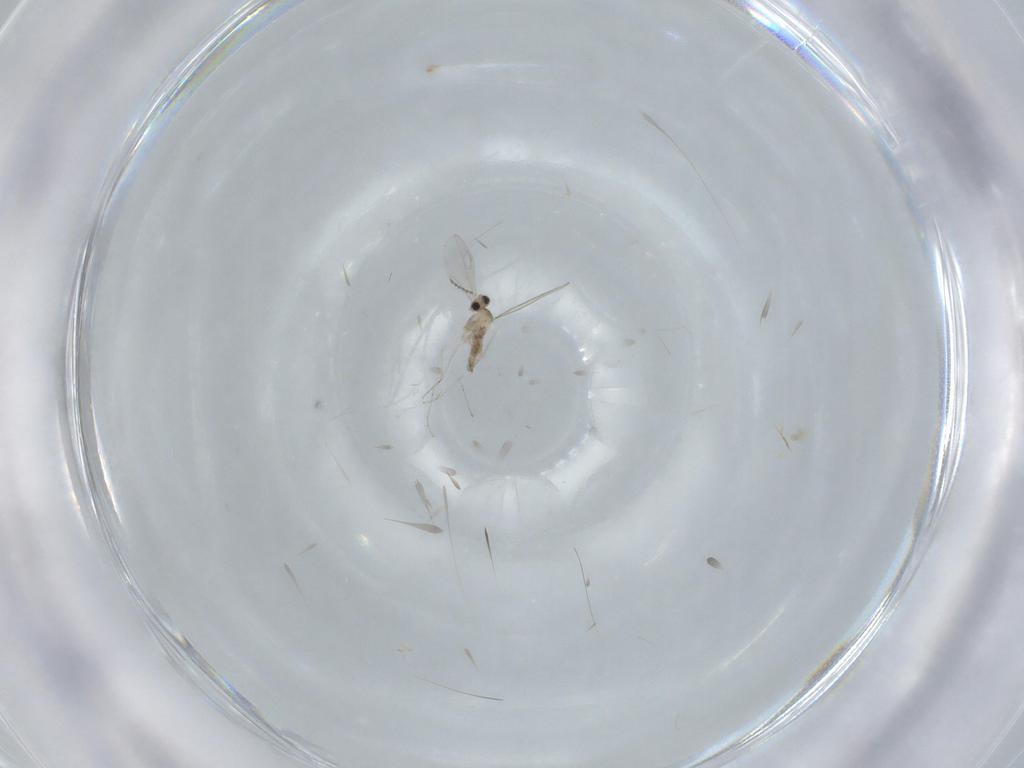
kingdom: Animalia
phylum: Arthropoda
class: Insecta
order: Diptera
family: Cecidomyiidae
